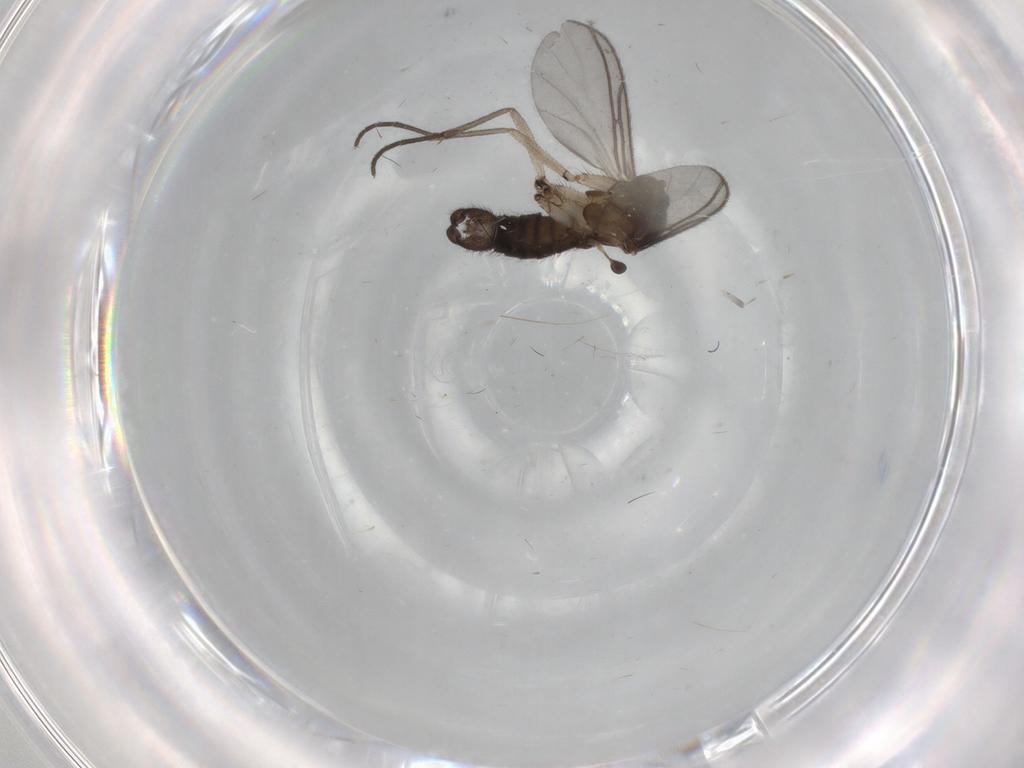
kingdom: Animalia
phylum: Arthropoda
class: Insecta
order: Diptera
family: Sciaridae
